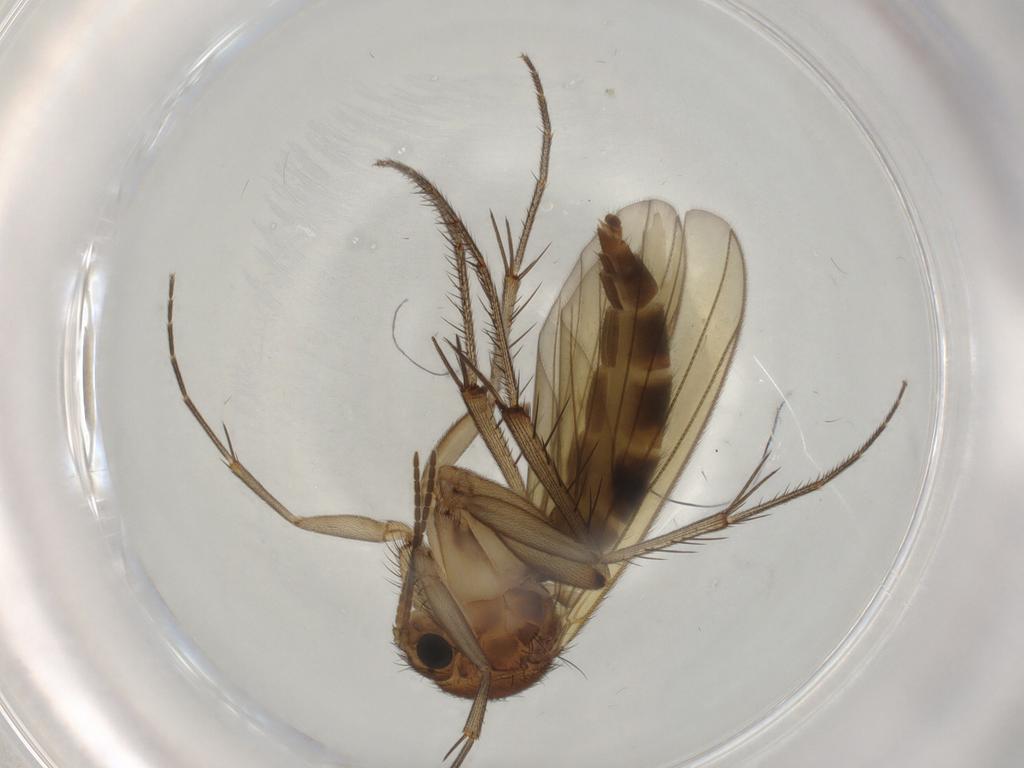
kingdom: Animalia
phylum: Arthropoda
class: Insecta
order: Diptera
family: Mycetophilidae
